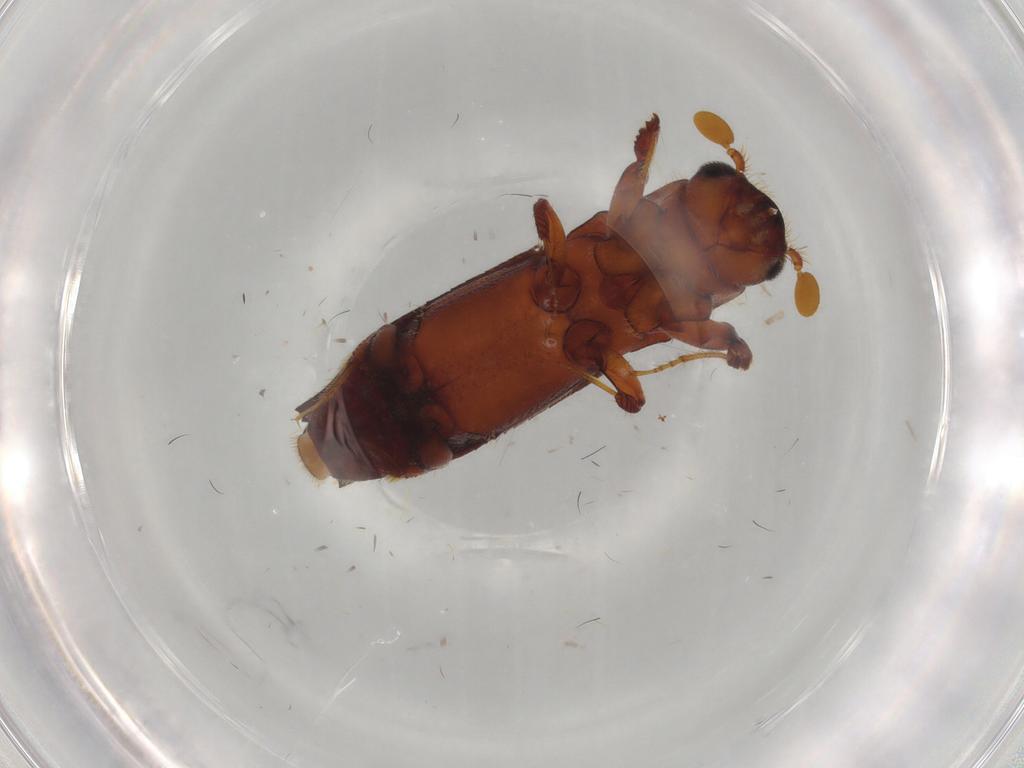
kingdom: Animalia
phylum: Arthropoda
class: Insecta
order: Coleoptera
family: Curculionidae
